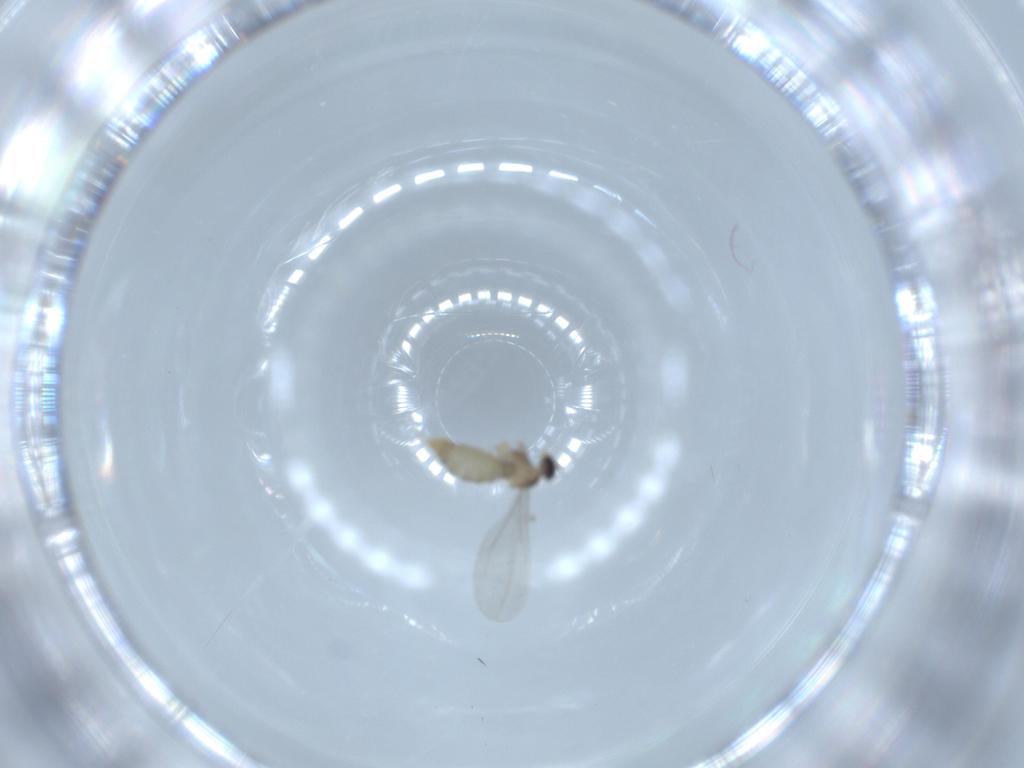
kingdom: Animalia
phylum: Arthropoda
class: Insecta
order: Diptera
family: Cecidomyiidae
